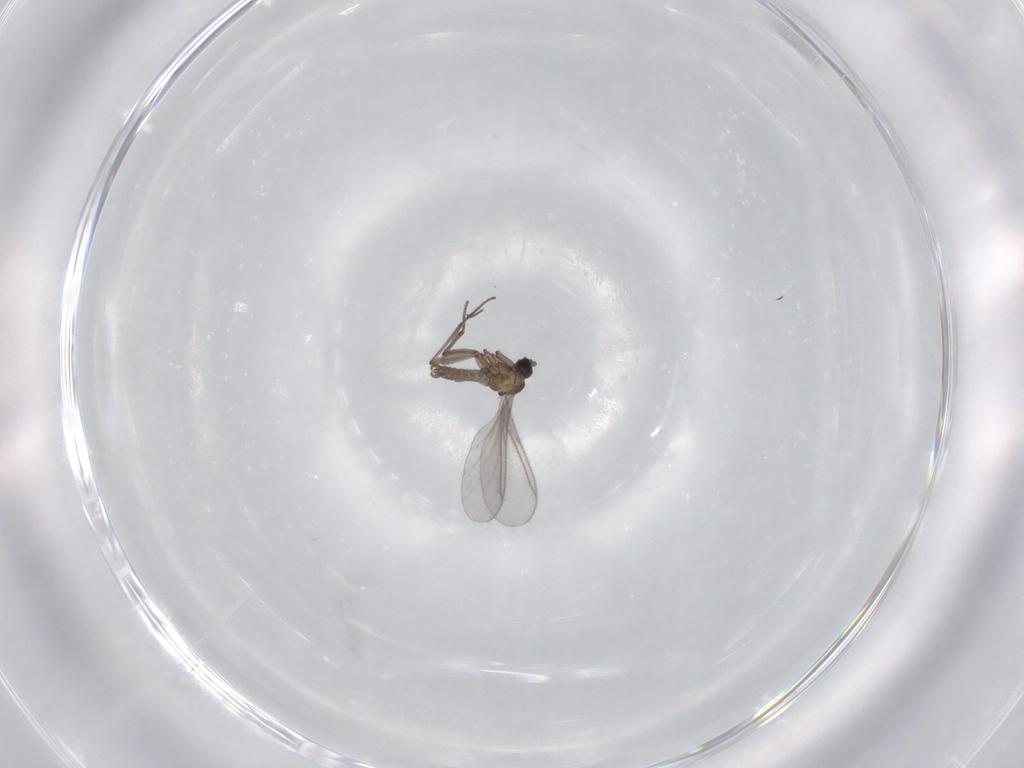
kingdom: Animalia
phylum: Arthropoda
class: Insecta
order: Diptera
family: Sciaridae
